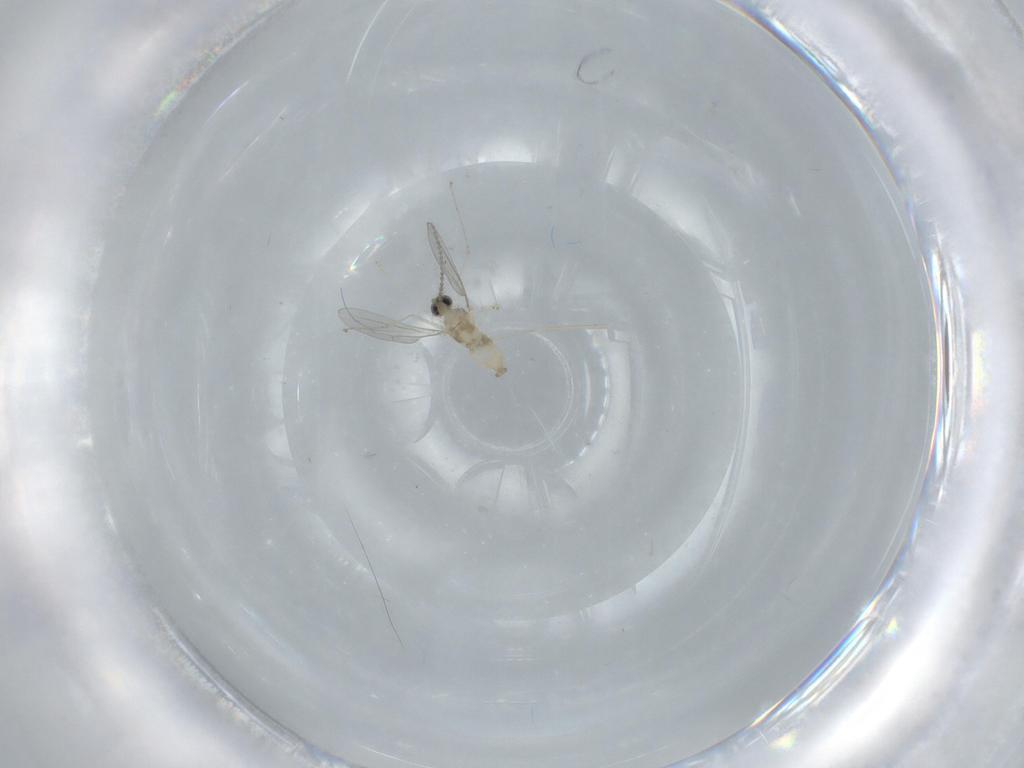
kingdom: Animalia
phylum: Arthropoda
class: Insecta
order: Diptera
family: Cecidomyiidae
